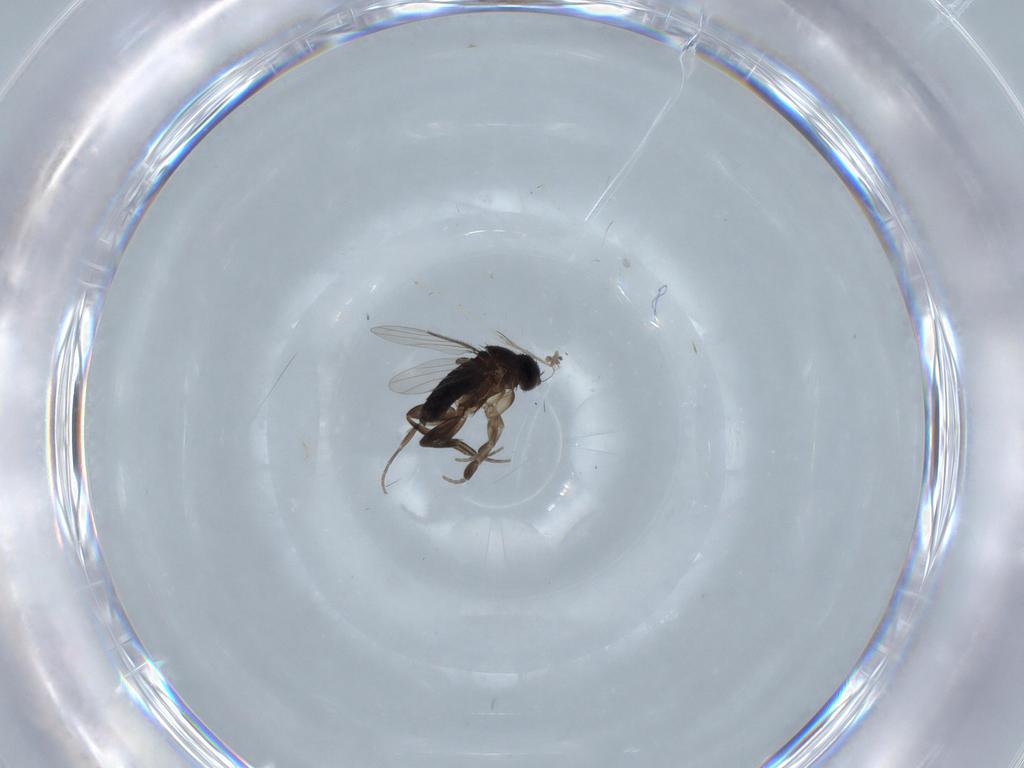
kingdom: Animalia
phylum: Arthropoda
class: Insecta
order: Diptera
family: Phoridae
